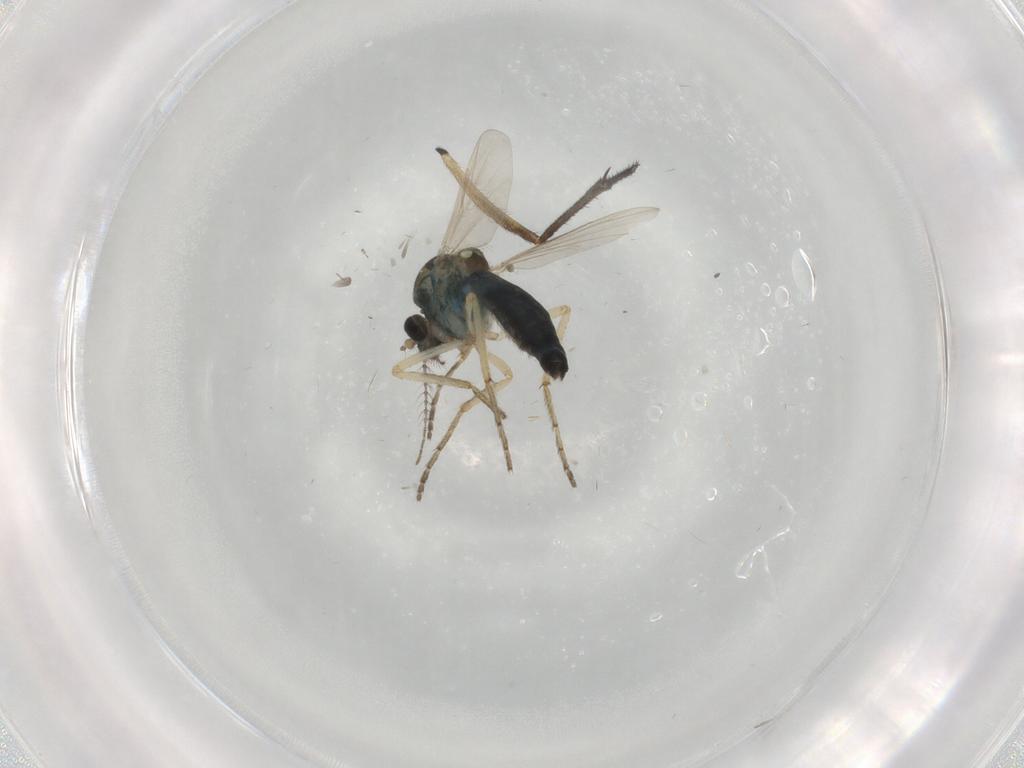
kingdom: Animalia
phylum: Arthropoda
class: Insecta
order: Diptera
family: Ceratopogonidae
